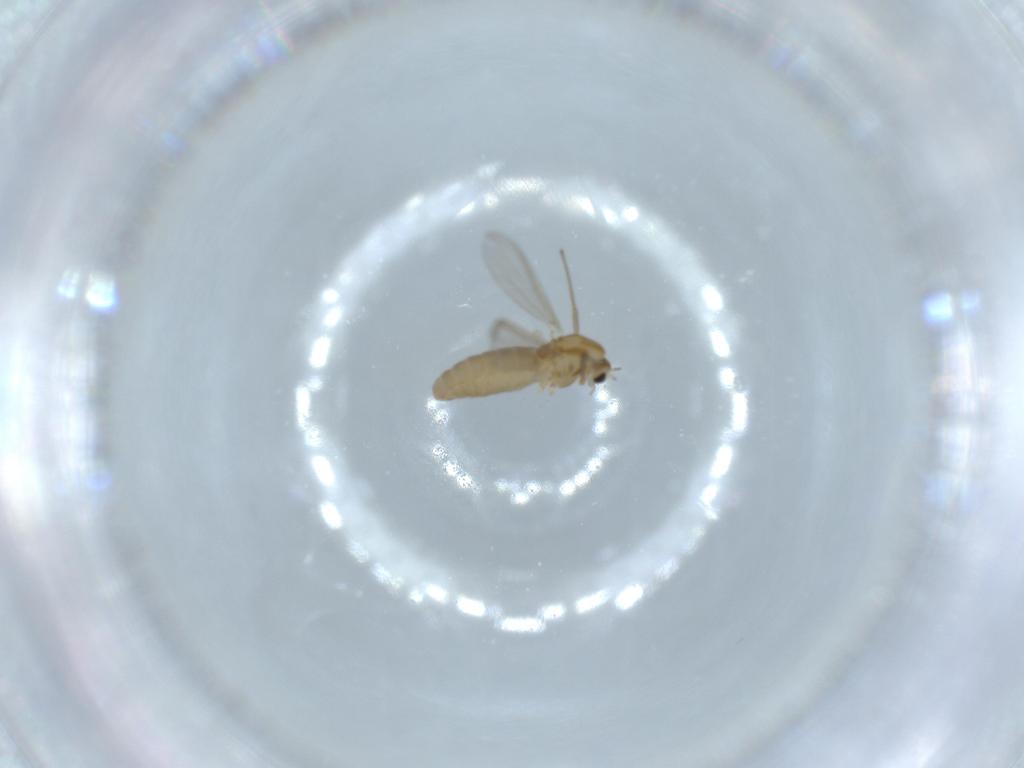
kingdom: Animalia
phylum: Arthropoda
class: Insecta
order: Diptera
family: Chironomidae
